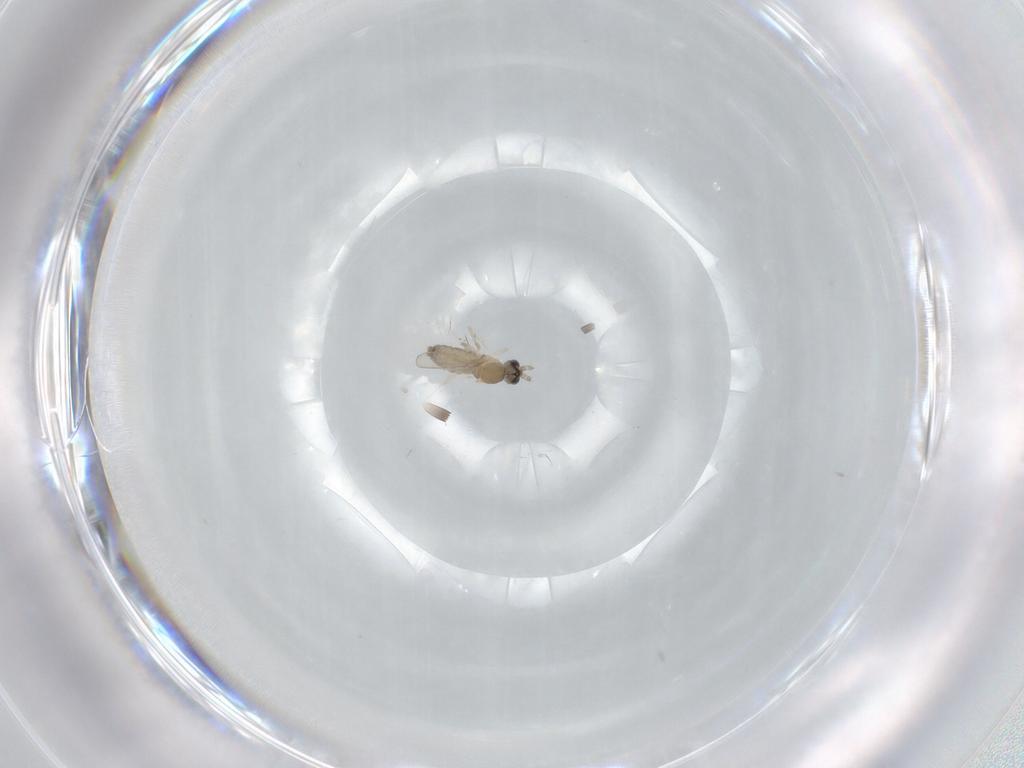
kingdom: Animalia
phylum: Arthropoda
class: Insecta
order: Diptera
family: Cecidomyiidae
